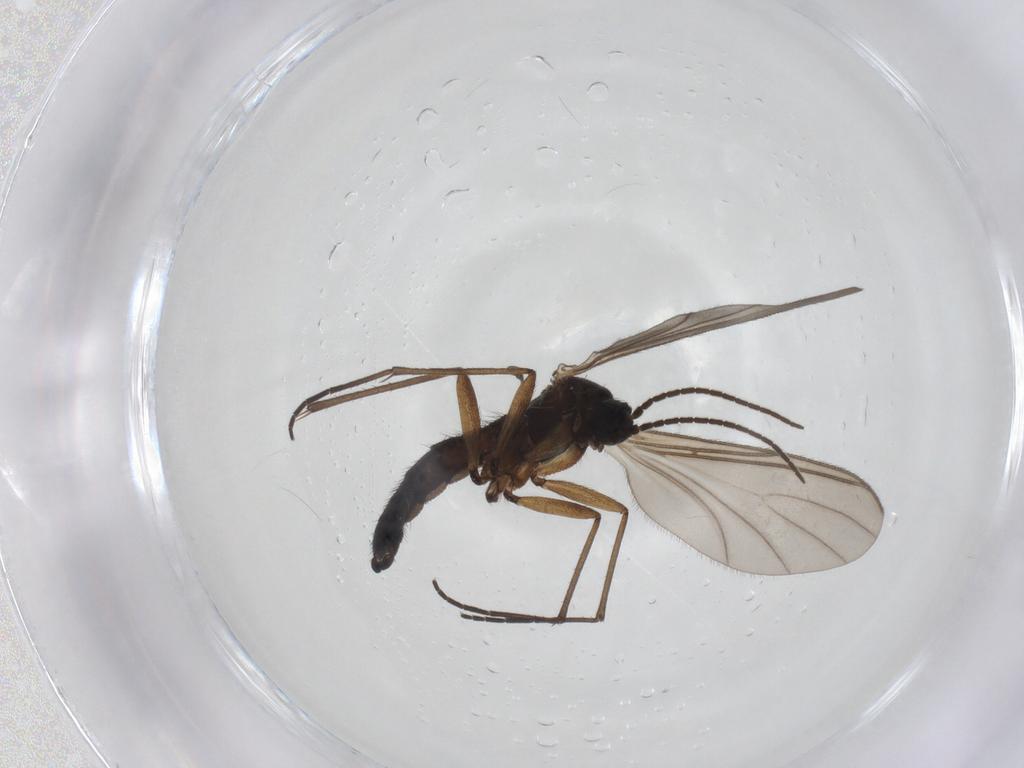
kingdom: Animalia
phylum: Arthropoda
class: Insecta
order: Diptera
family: Sciaridae
